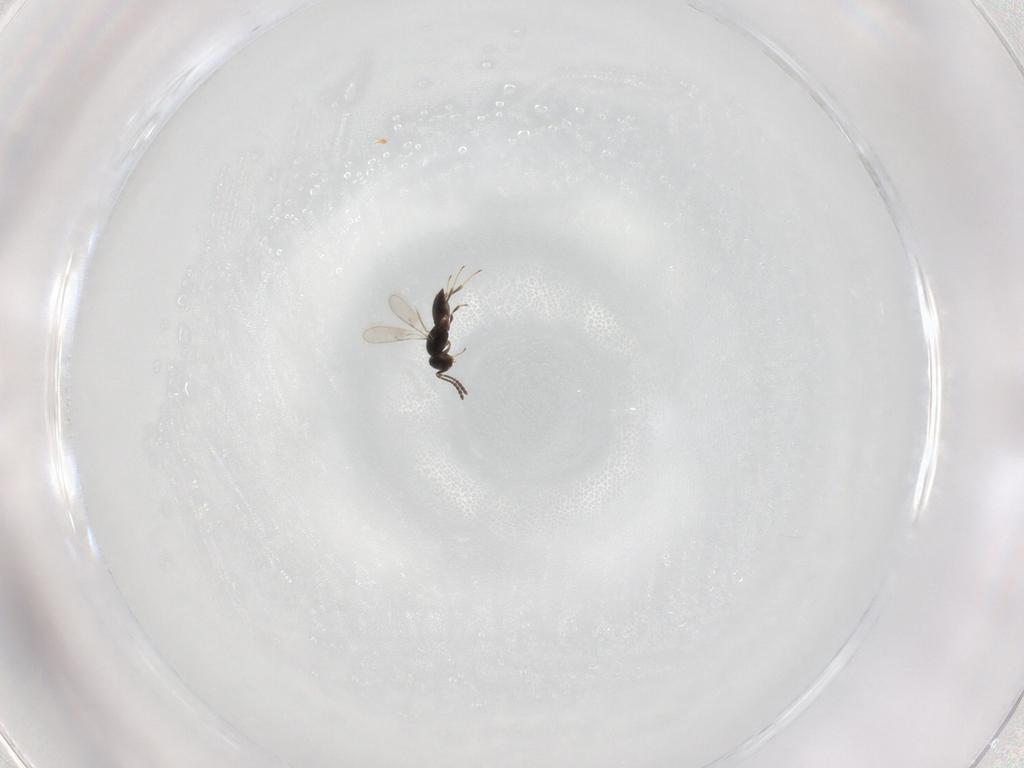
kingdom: Animalia
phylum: Arthropoda
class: Insecta
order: Hymenoptera
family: Scelionidae
